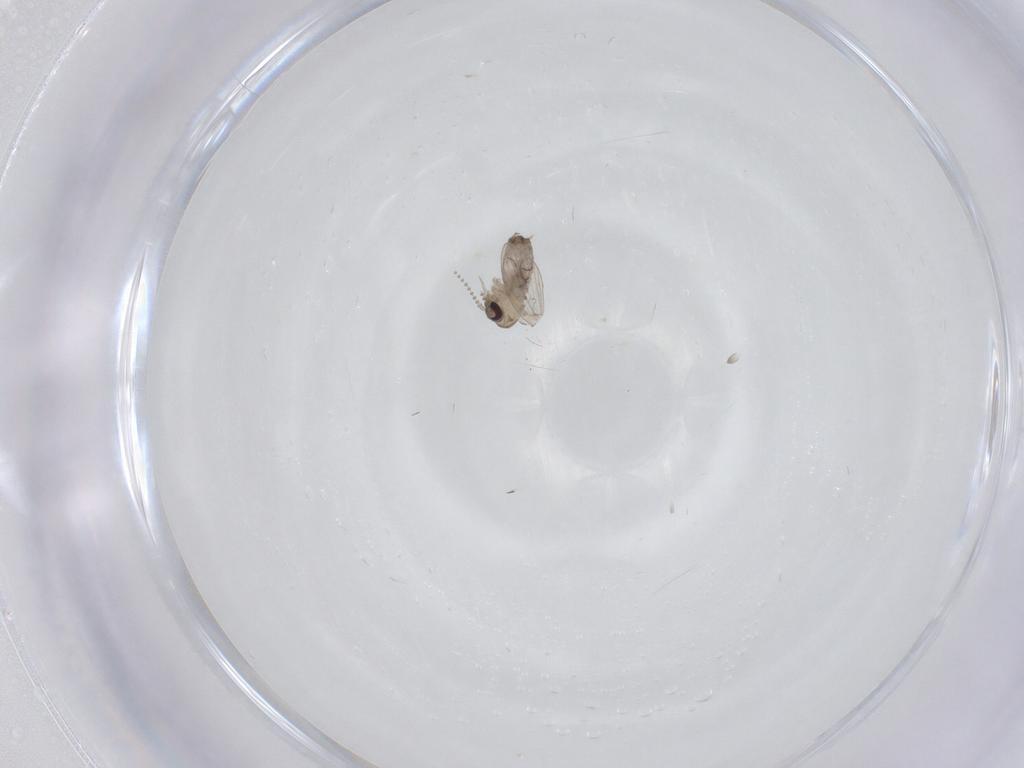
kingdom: Animalia
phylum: Arthropoda
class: Insecta
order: Diptera
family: Psychodidae
